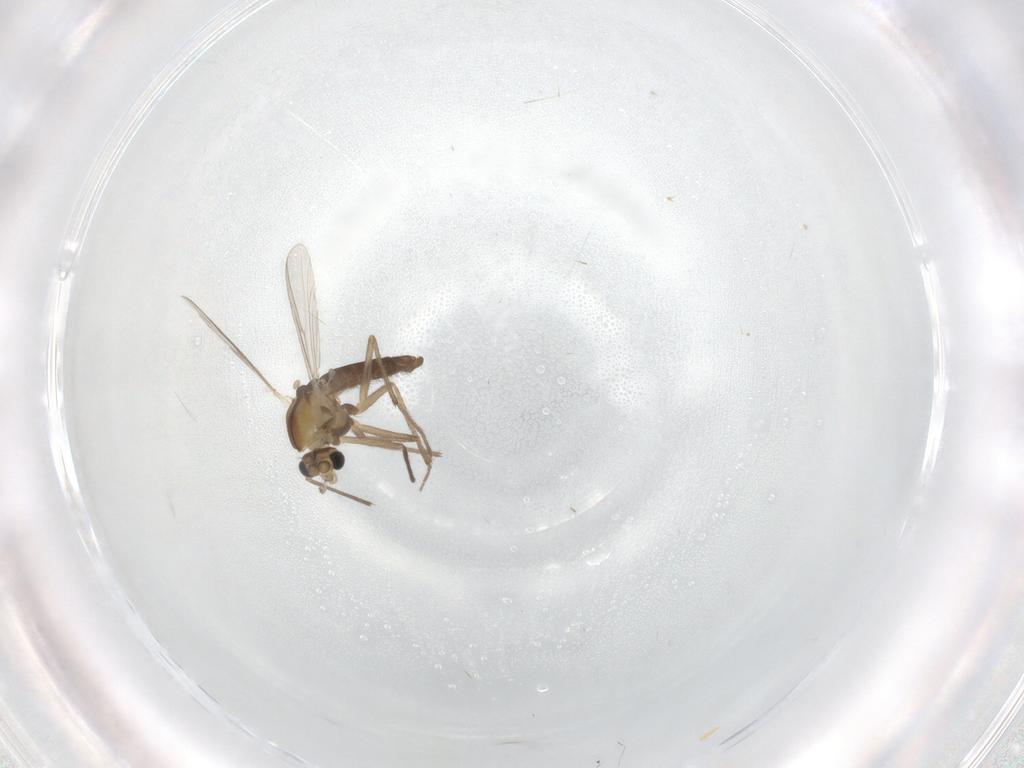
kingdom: Animalia
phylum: Arthropoda
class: Insecta
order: Diptera
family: Chironomidae
